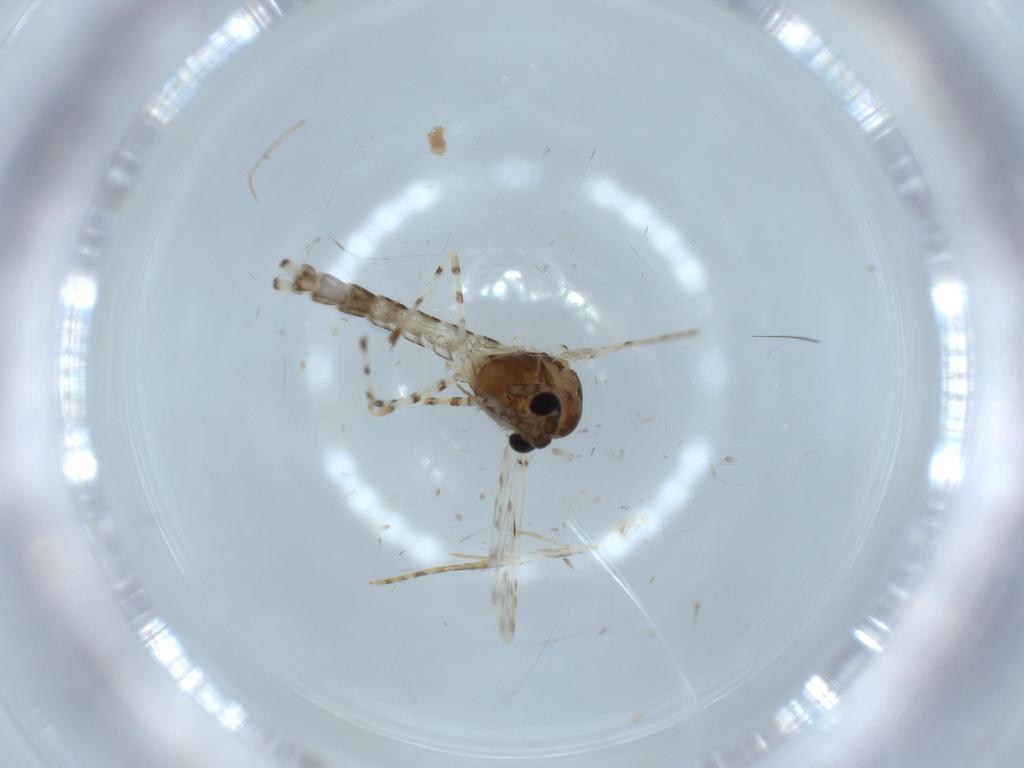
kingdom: Animalia
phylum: Arthropoda
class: Insecta
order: Diptera
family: Chironomidae
